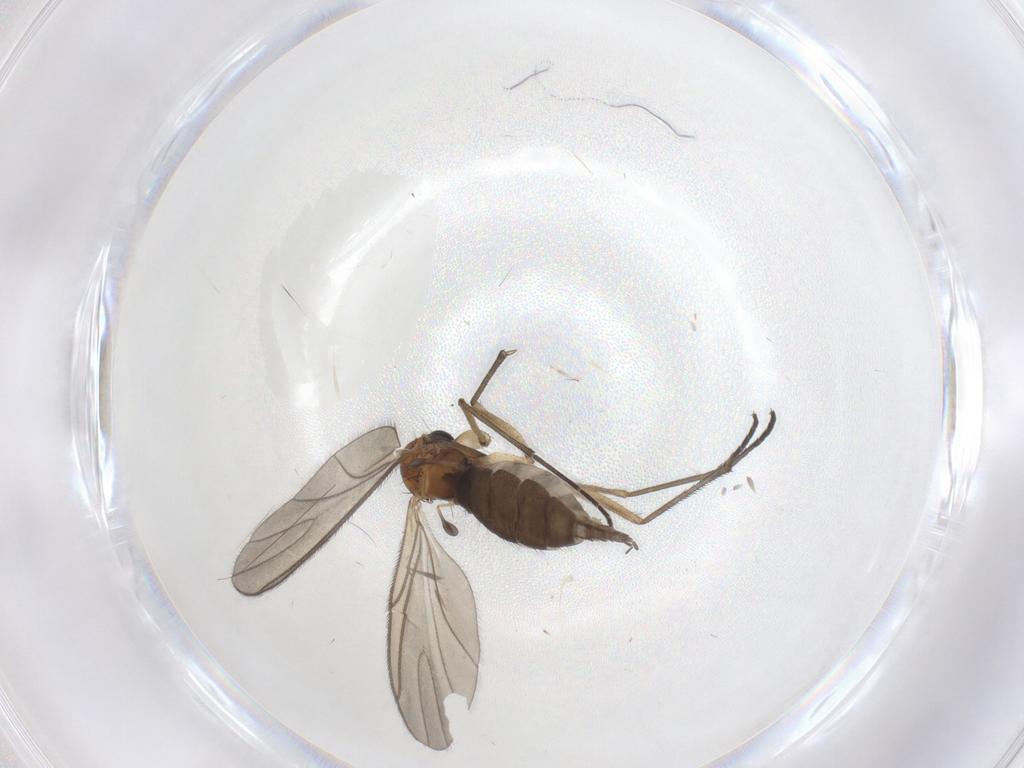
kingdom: Animalia
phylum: Arthropoda
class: Insecta
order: Diptera
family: Sciaridae
